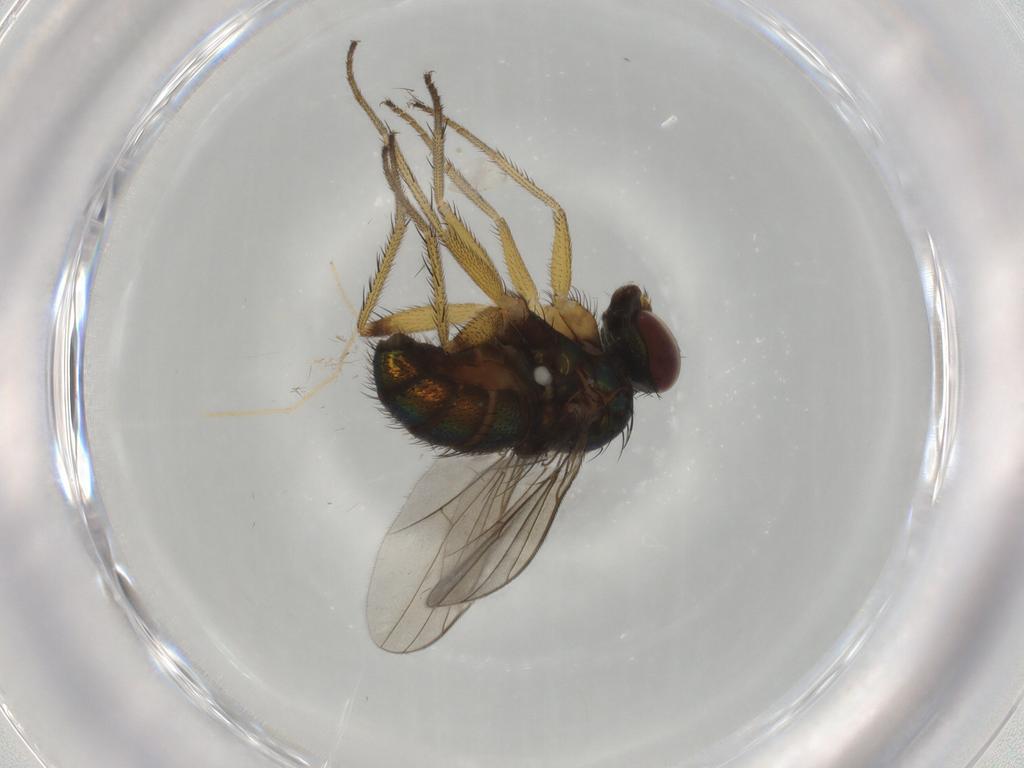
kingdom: Animalia
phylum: Arthropoda
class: Insecta
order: Diptera
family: Dolichopodidae
